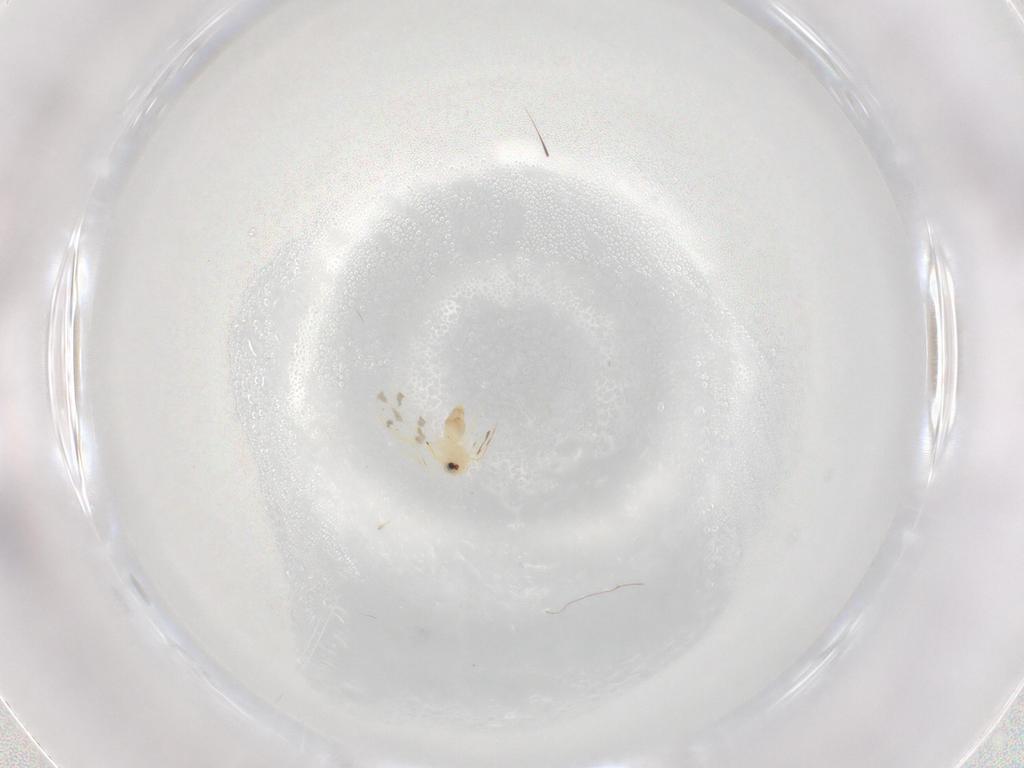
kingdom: Animalia
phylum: Arthropoda
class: Insecta
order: Hemiptera
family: Aleyrodidae
